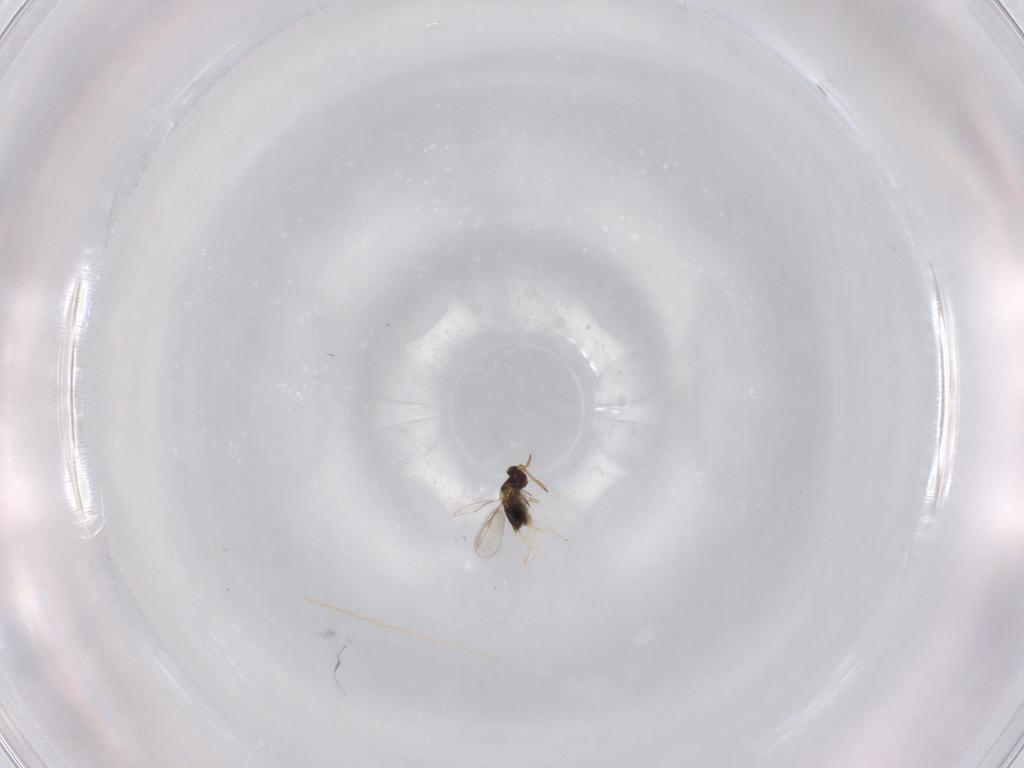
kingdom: Animalia
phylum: Arthropoda
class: Insecta
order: Hymenoptera
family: Aphelinidae
